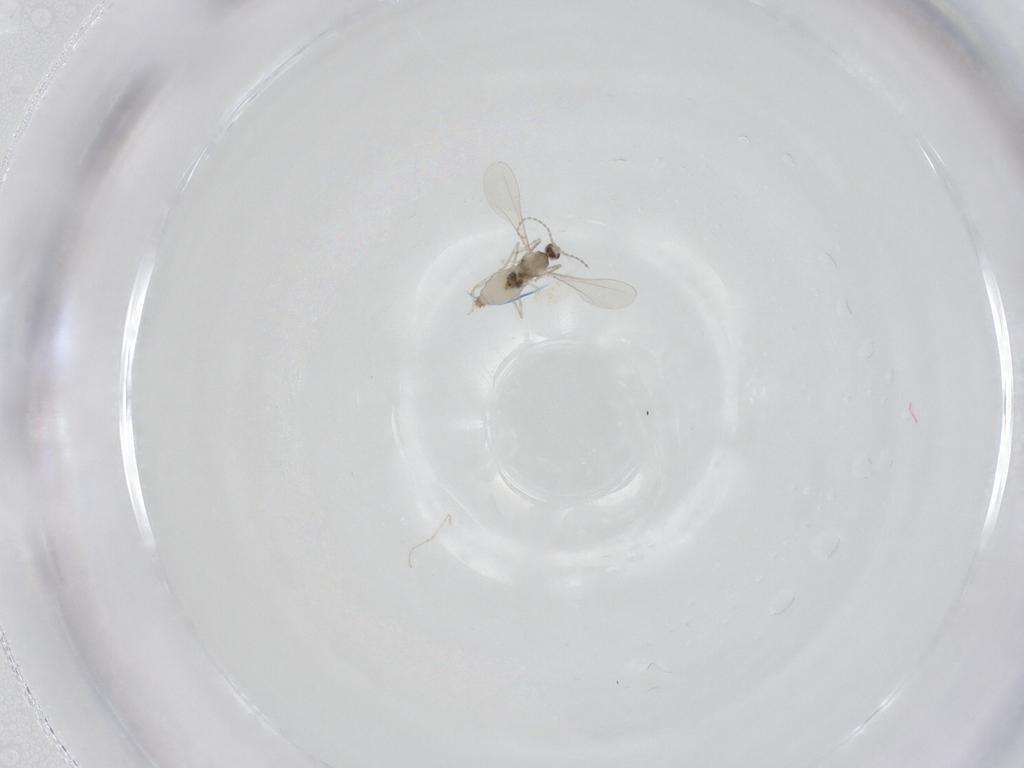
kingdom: Animalia
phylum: Arthropoda
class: Insecta
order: Diptera
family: Cecidomyiidae
